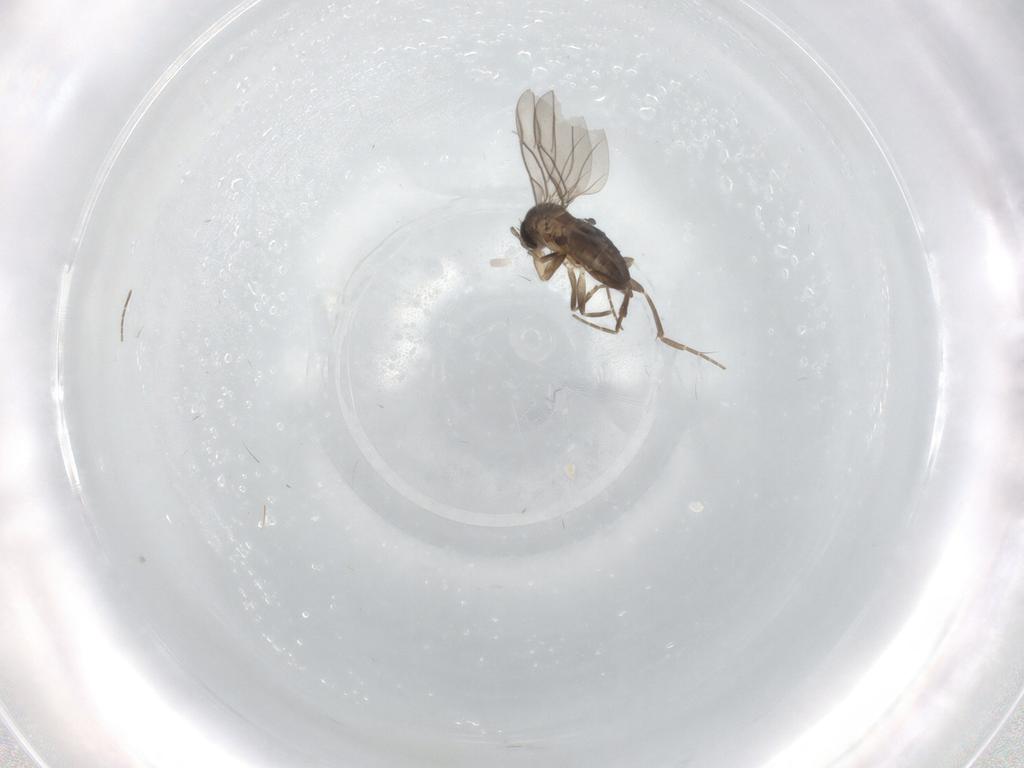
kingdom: Animalia
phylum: Arthropoda
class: Insecta
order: Diptera
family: Chironomidae
